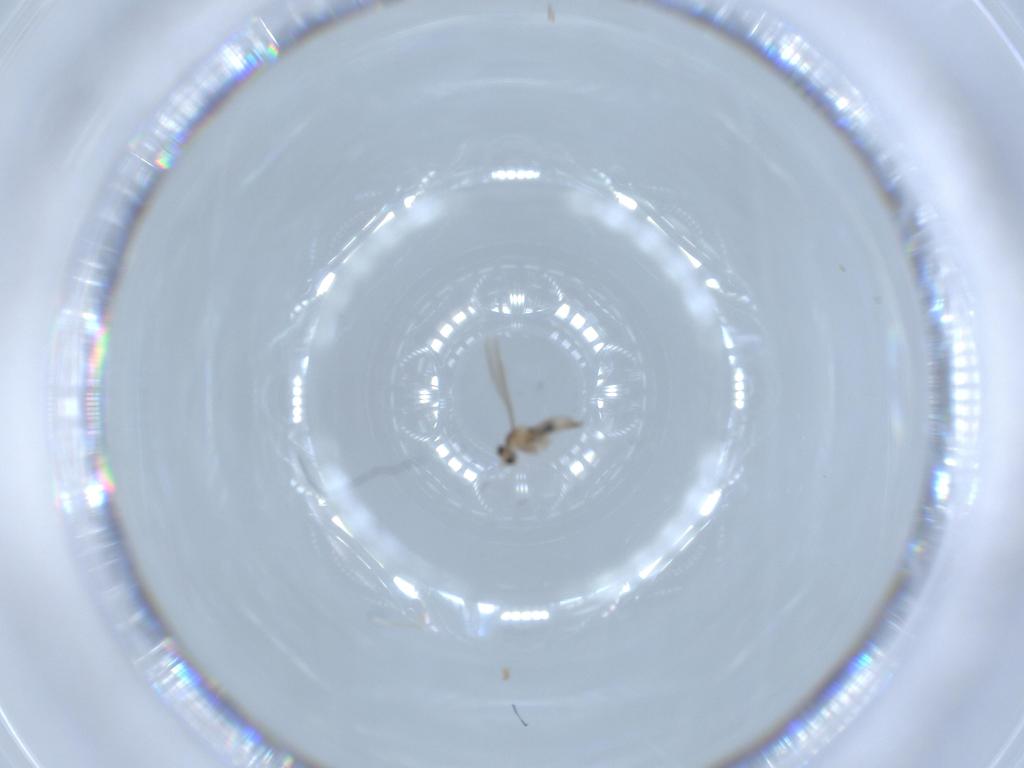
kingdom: Animalia
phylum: Arthropoda
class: Insecta
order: Diptera
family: Cecidomyiidae
